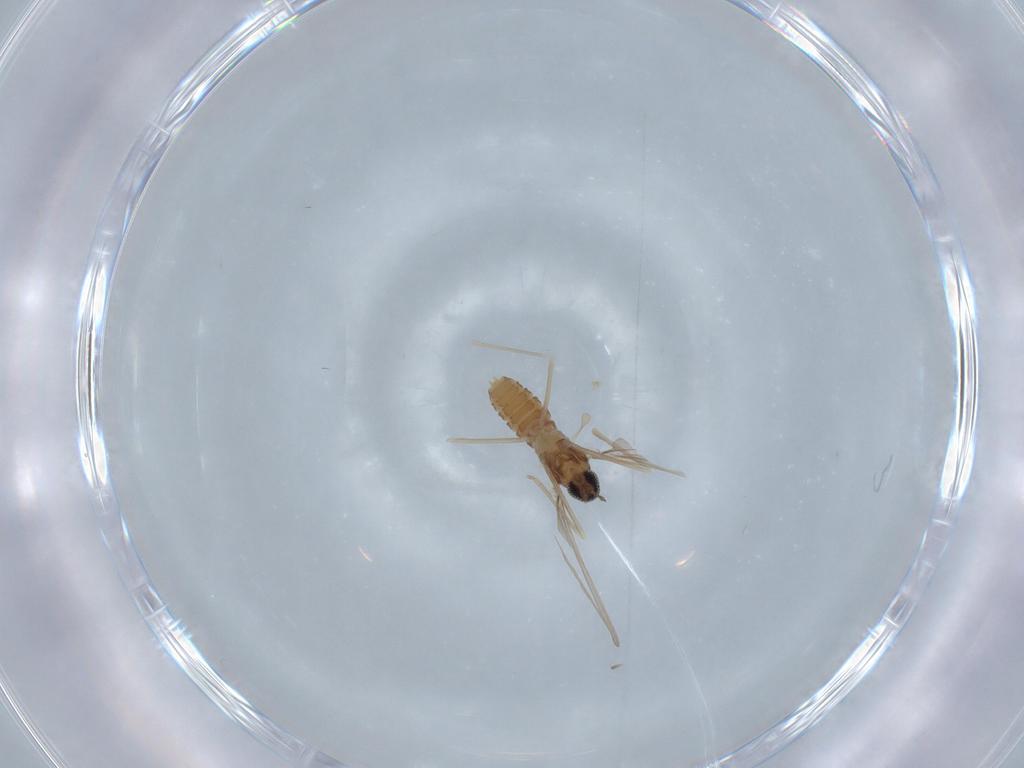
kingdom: Animalia
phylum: Arthropoda
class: Insecta
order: Diptera
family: Cecidomyiidae
